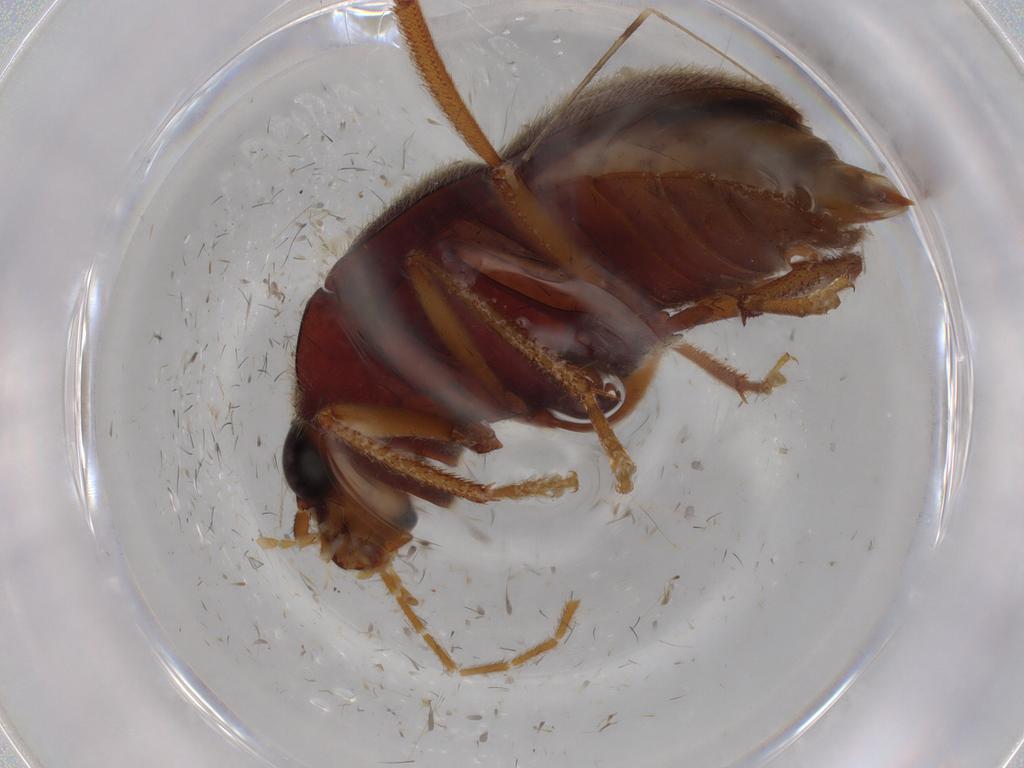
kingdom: Animalia
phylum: Arthropoda
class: Insecta
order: Coleoptera
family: Ptilodactylidae
